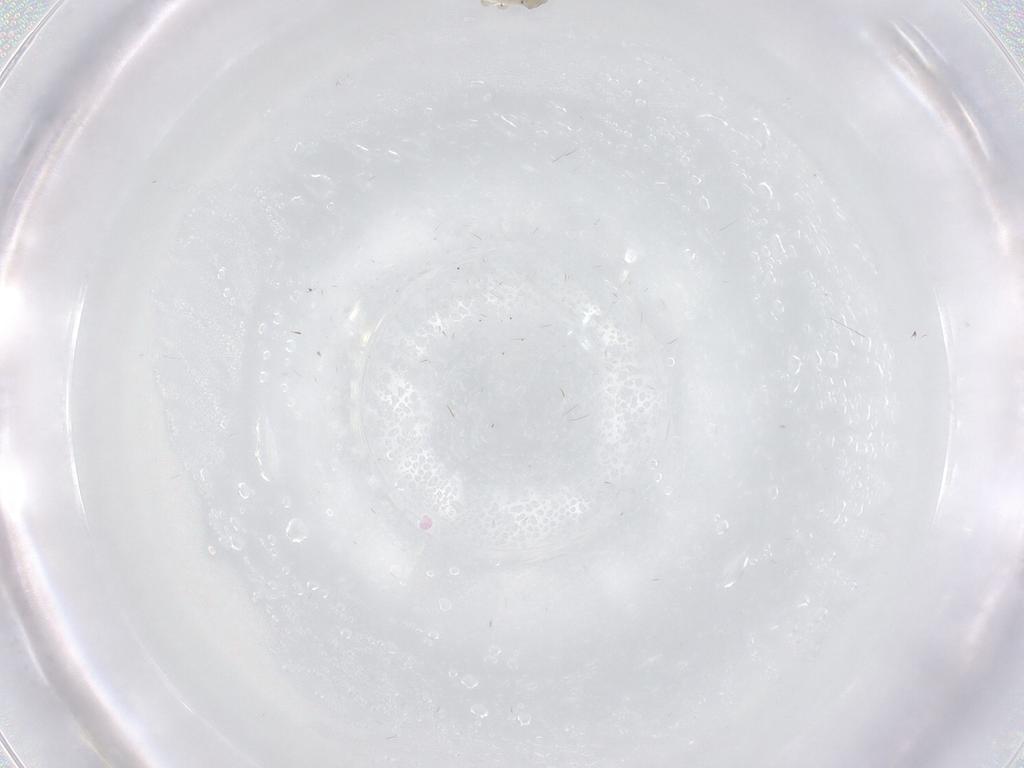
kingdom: Animalia
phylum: Arthropoda
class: Insecta
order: Hemiptera
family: Aleyrodidae
